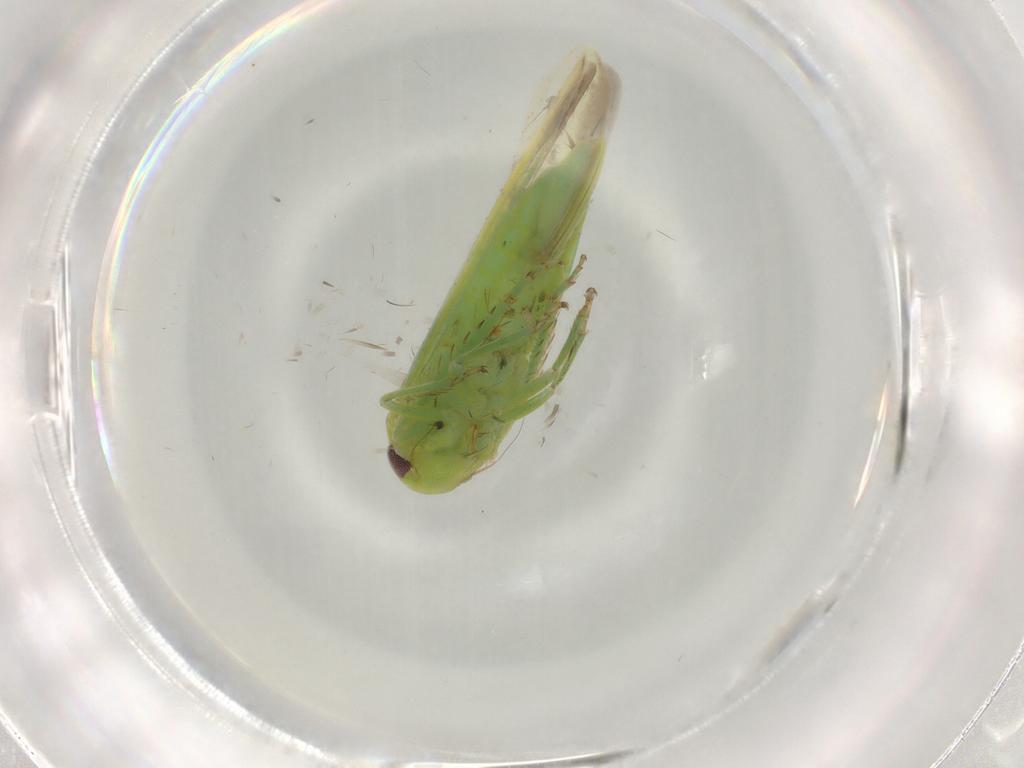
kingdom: Animalia
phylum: Arthropoda
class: Insecta
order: Hemiptera
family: Cicadellidae
